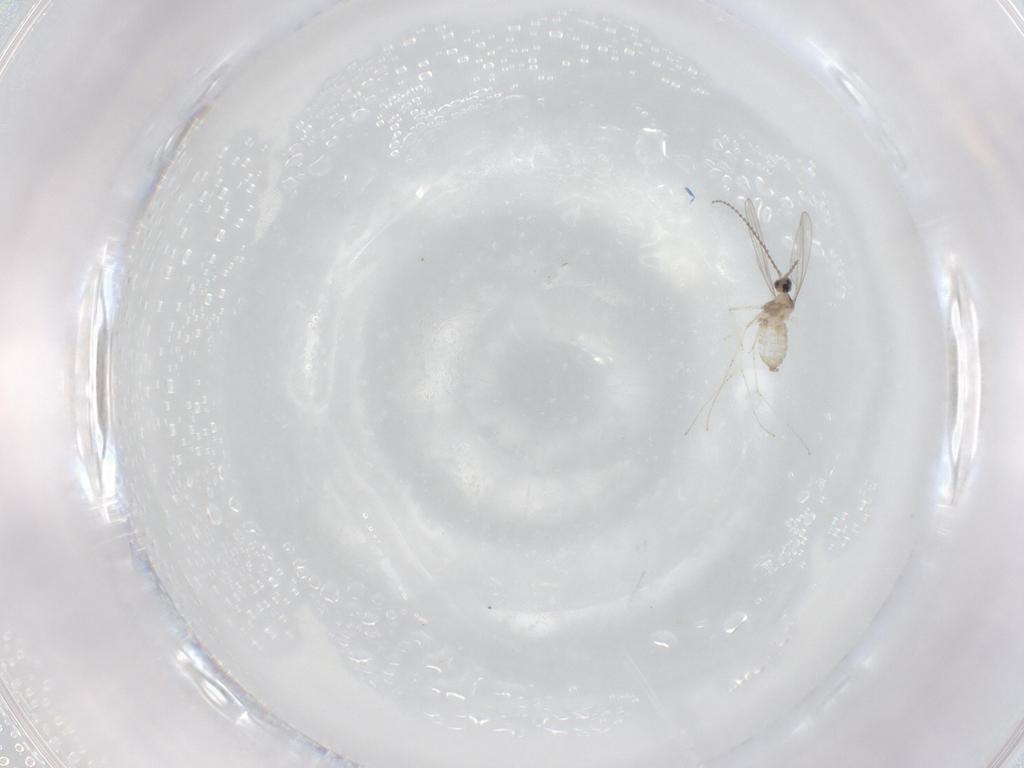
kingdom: Animalia
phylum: Arthropoda
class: Insecta
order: Diptera
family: Cecidomyiidae
